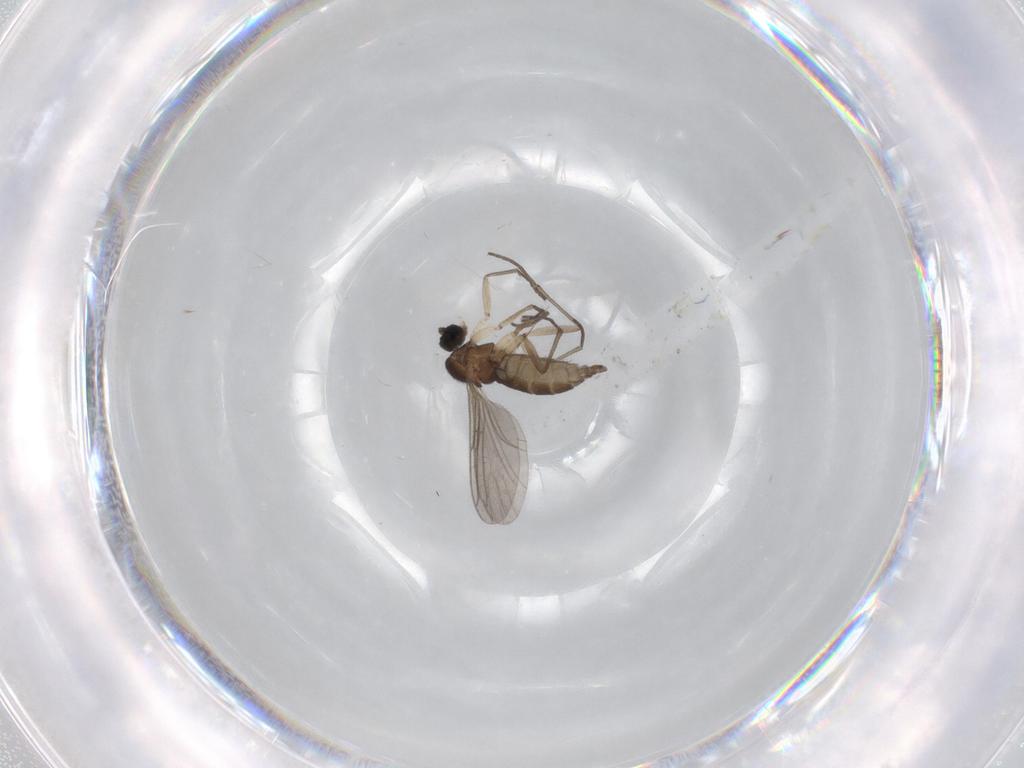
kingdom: Animalia
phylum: Arthropoda
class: Insecta
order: Diptera
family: Sciaridae
